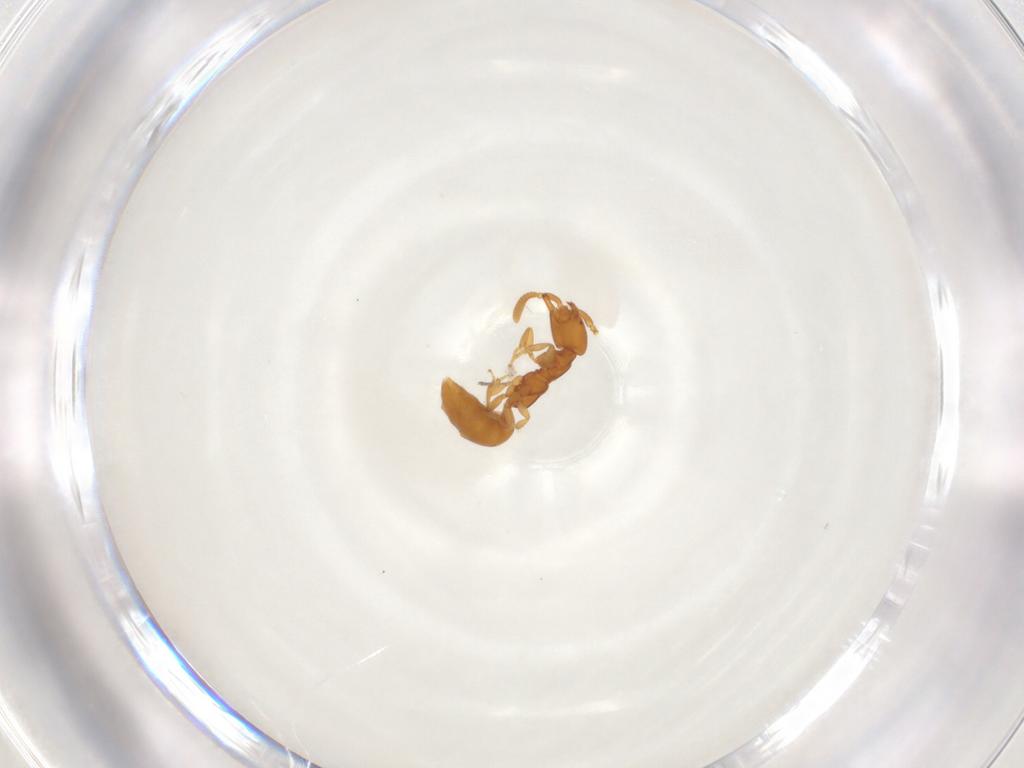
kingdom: Animalia
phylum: Arthropoda
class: Insecta
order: Hymenoptera
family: Bethylidae
